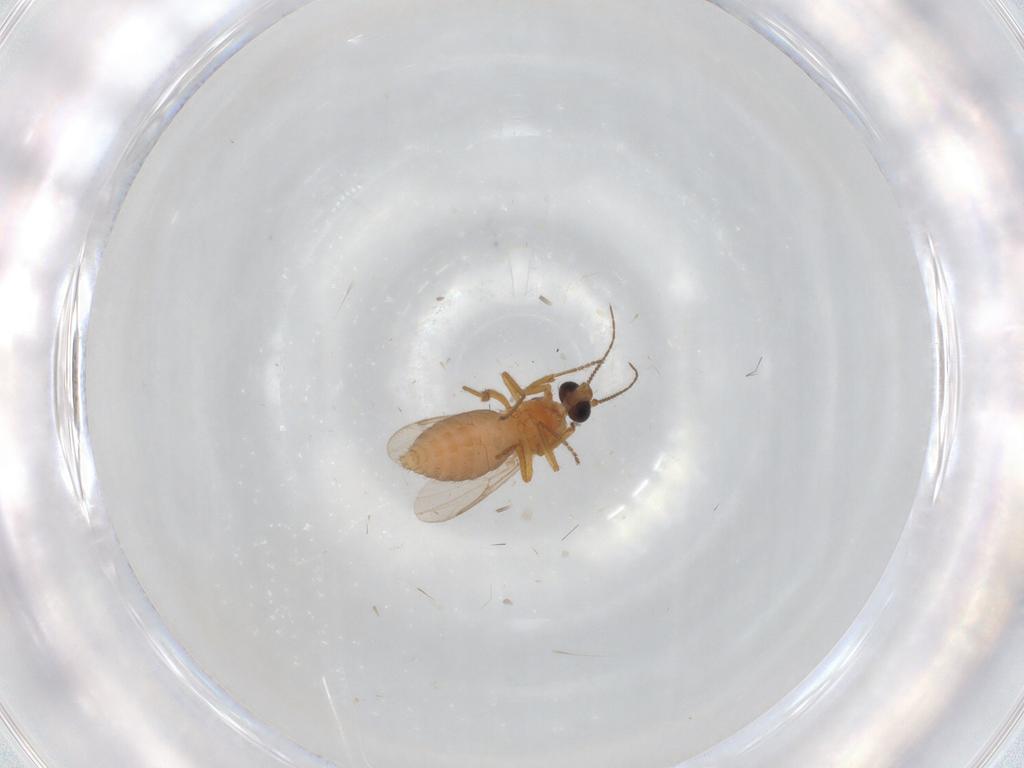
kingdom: Animalia
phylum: Arthropoda
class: Insecta
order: Diptera
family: Ceratopogonidae
